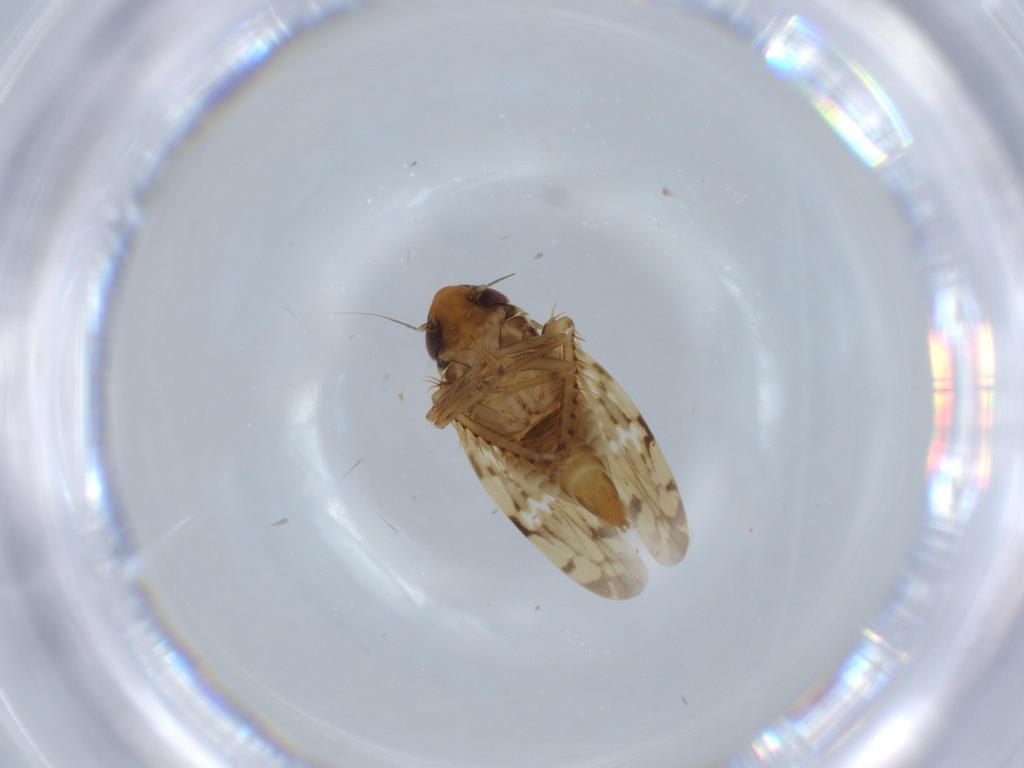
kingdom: Animalia
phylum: Arthropoda
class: Insecta
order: Hemiptera
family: Cicadellidae
